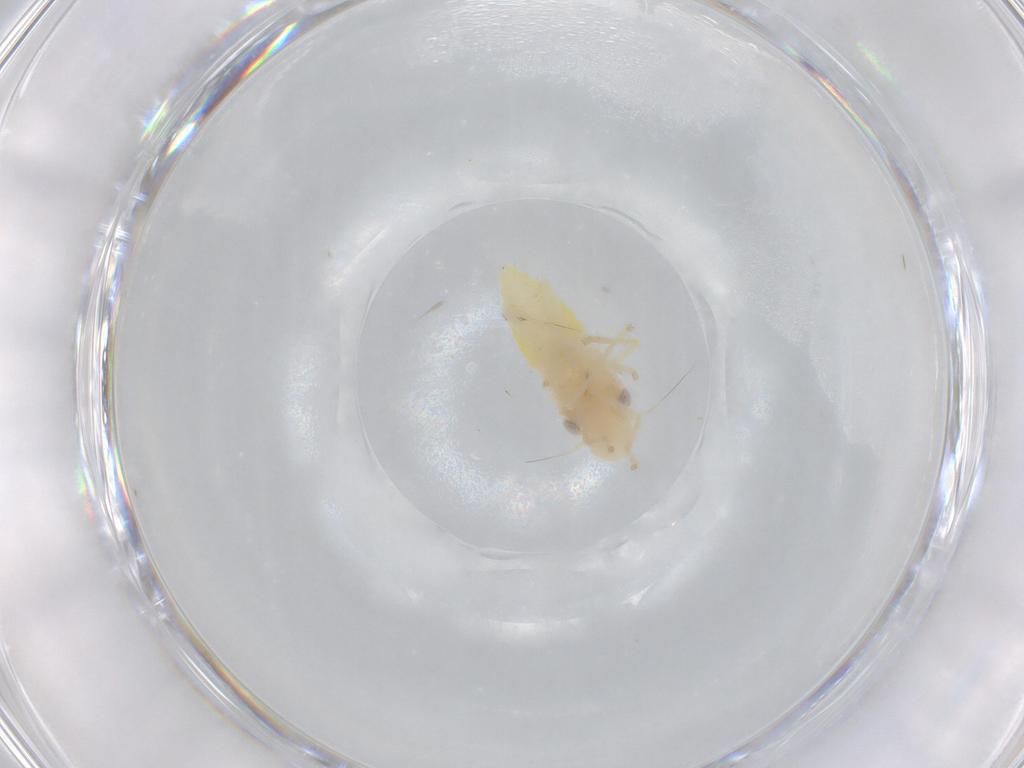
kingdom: Animalia
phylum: Arthropoda
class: Insecta
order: Hemiptera
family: Cicadellidae
